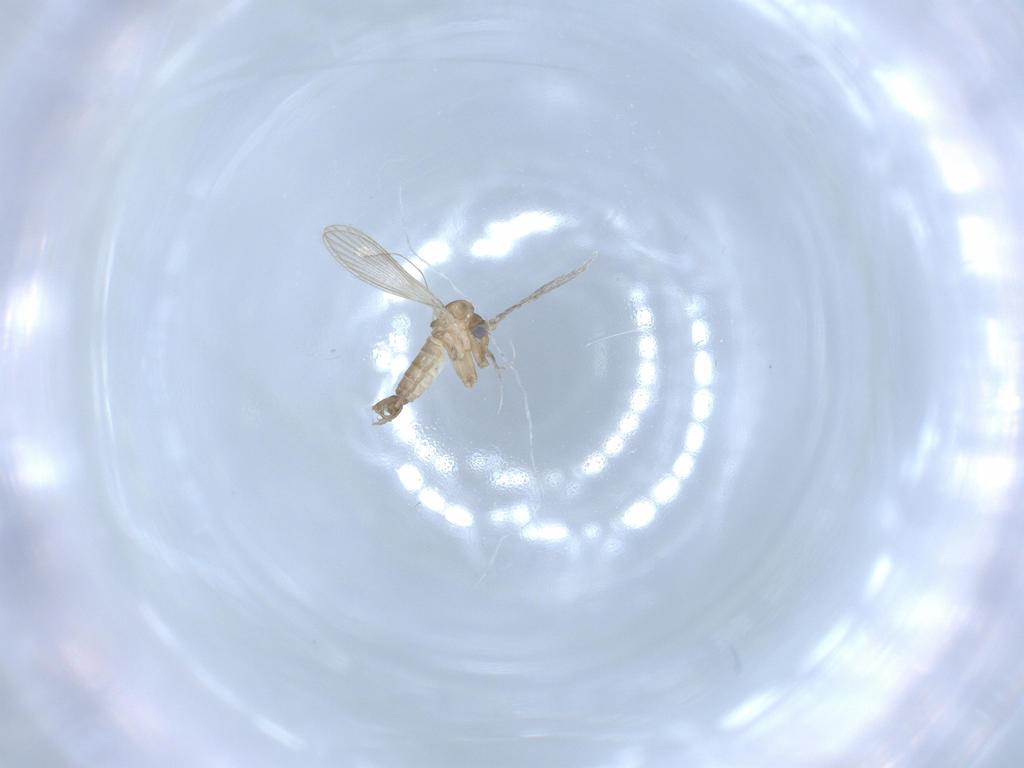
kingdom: Animalia
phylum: Arthropoda
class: Insecta
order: Diptera
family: Psychodidae
